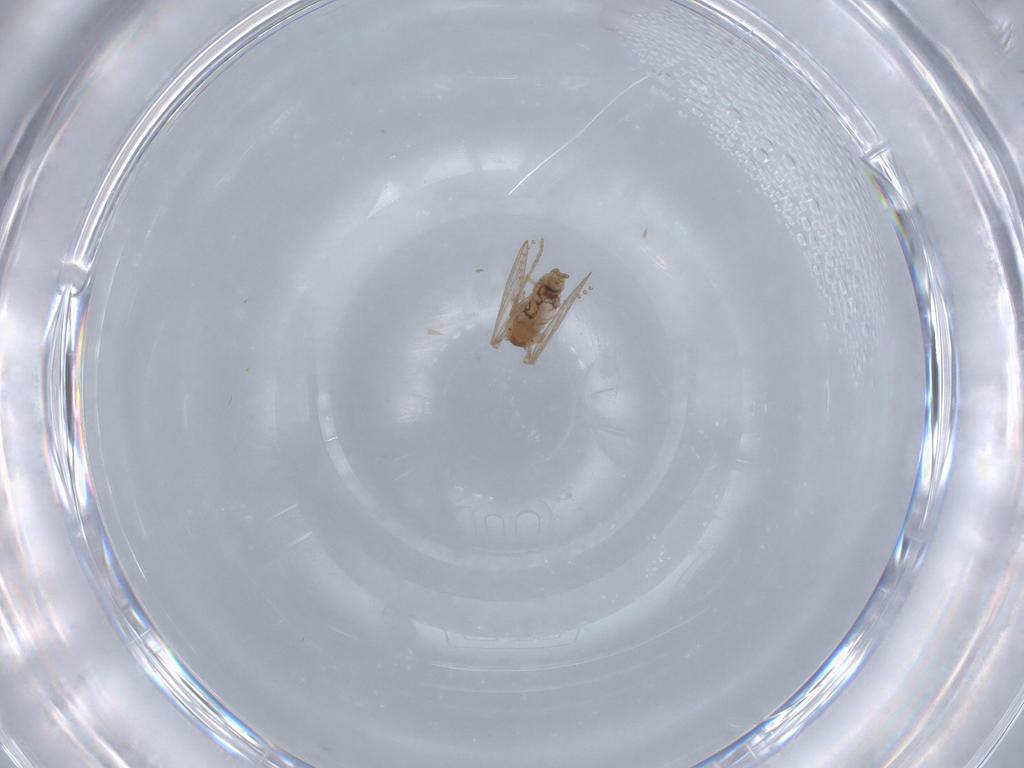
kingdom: Animalia
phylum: Arthropoda
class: Insecta
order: Diptera
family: Psychodidae
